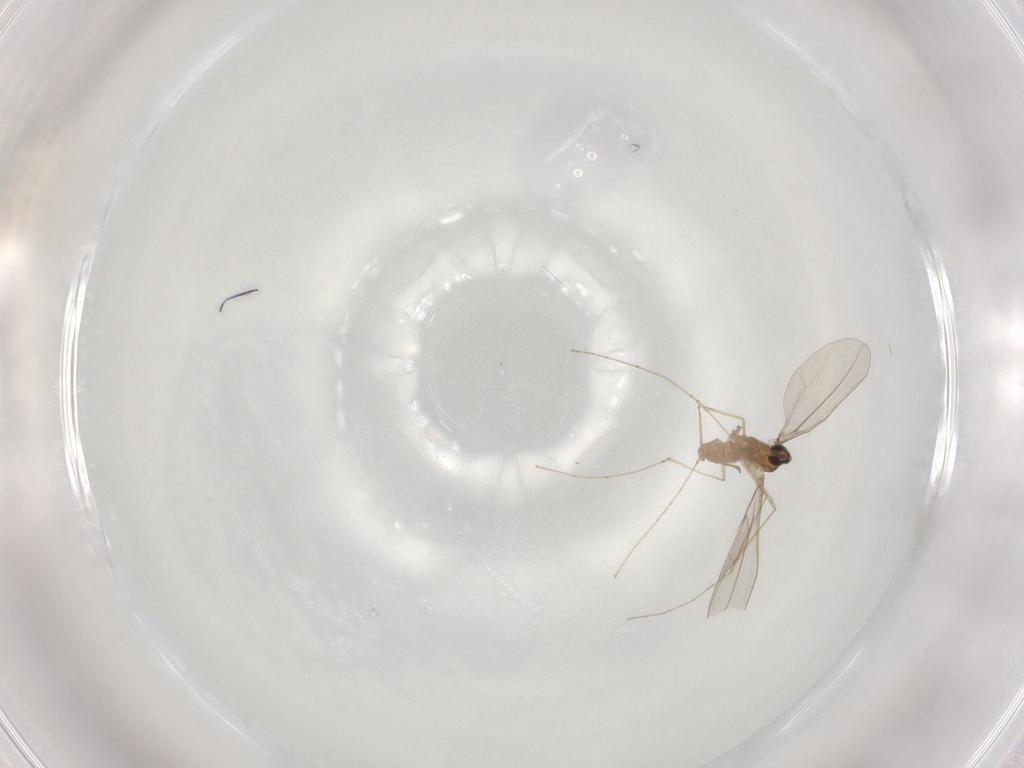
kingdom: Animalia
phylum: Arthropoda
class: Insecta
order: Diptera
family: Cecidomyiidae
